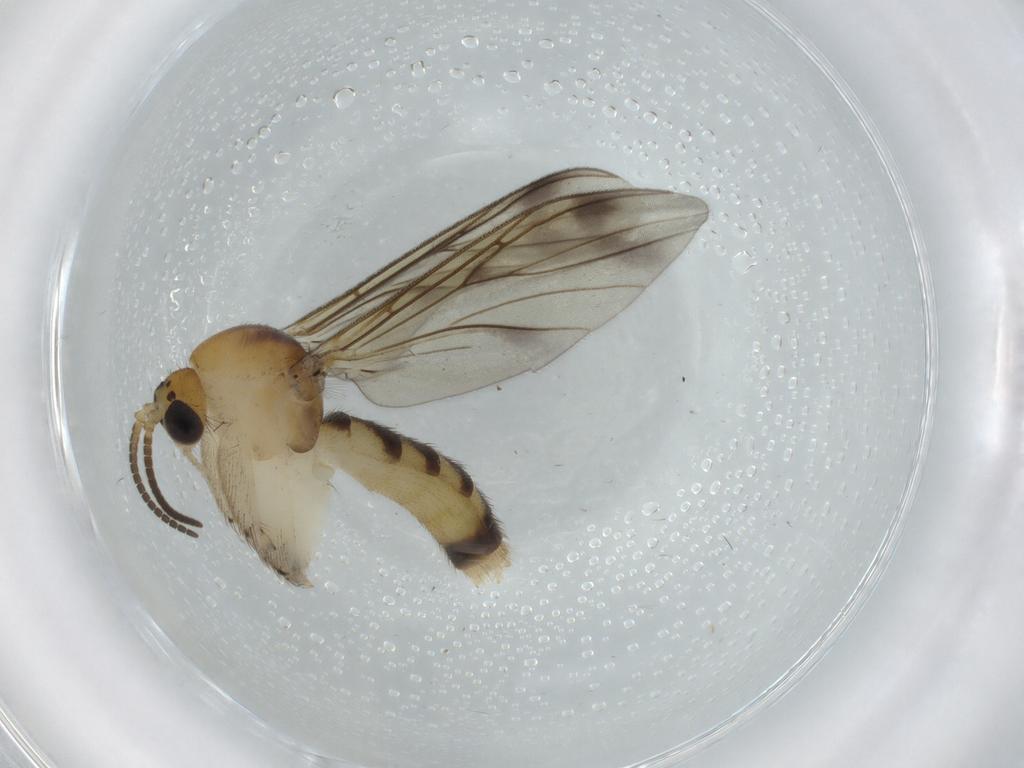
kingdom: Animalia
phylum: Arthropoda
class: Insecta
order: Diptera
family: Mycetophilidae
